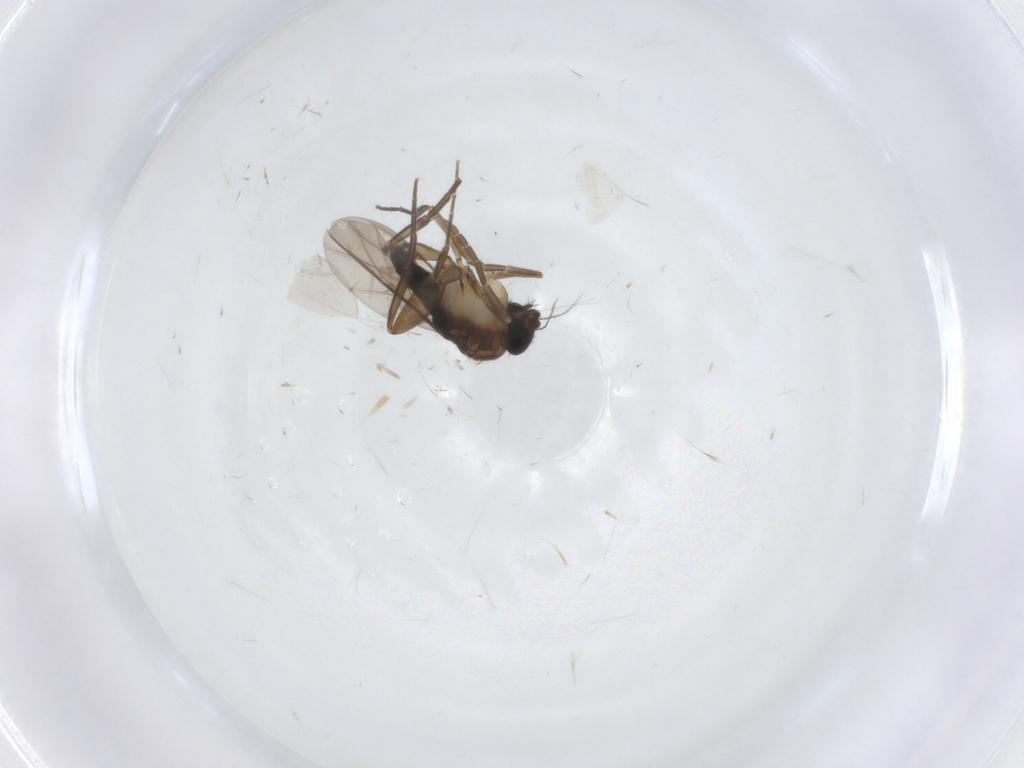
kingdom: Animalia
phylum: Arthropoda
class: Insecta
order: Diptera
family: Phoridae
